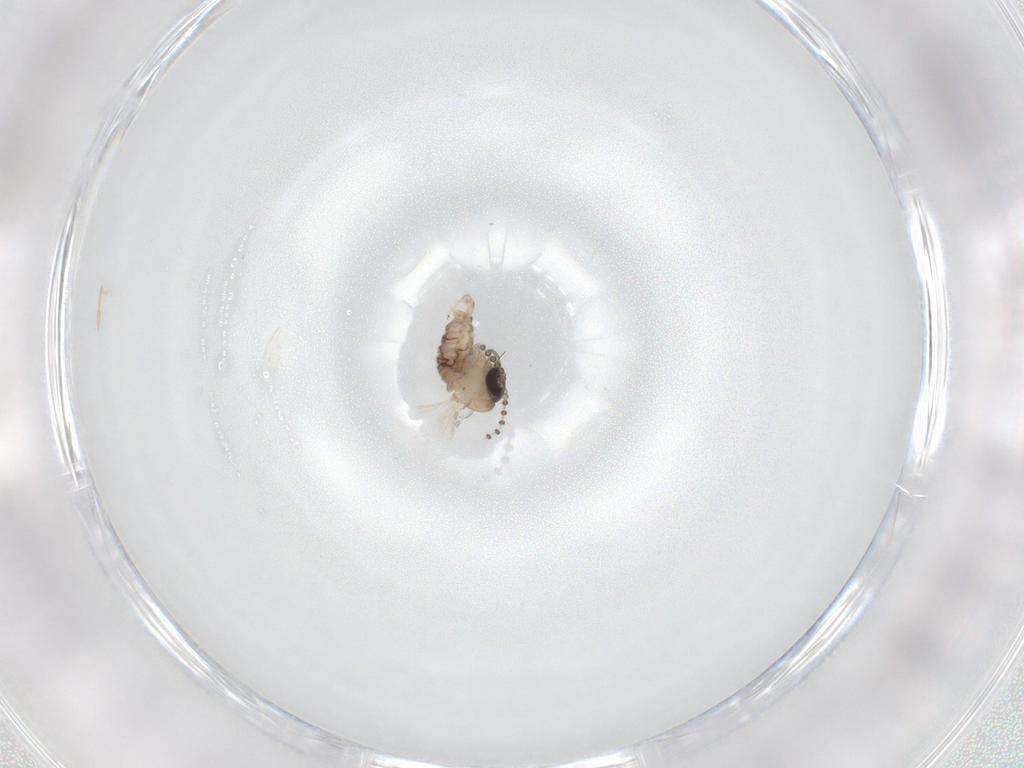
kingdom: Animalia
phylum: Arthropoda
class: Insecta
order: Diptera
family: Psychodidae
